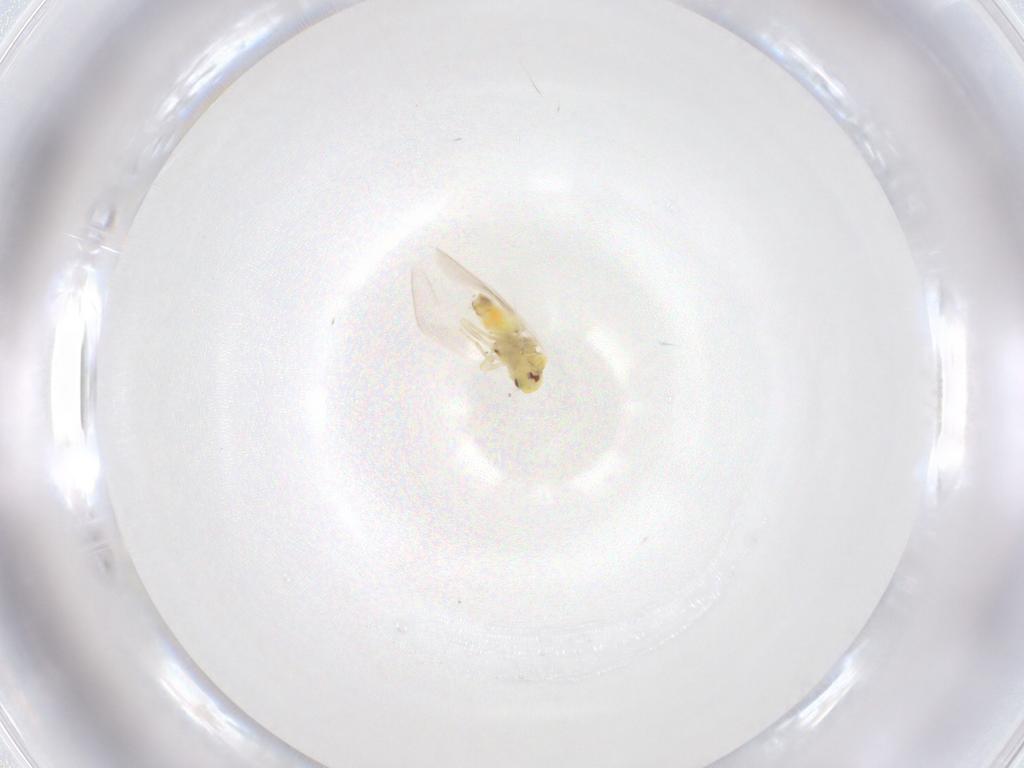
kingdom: Animalia
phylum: Arthropoda
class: Insecta
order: Hemiptera
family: Aleyrodidae
